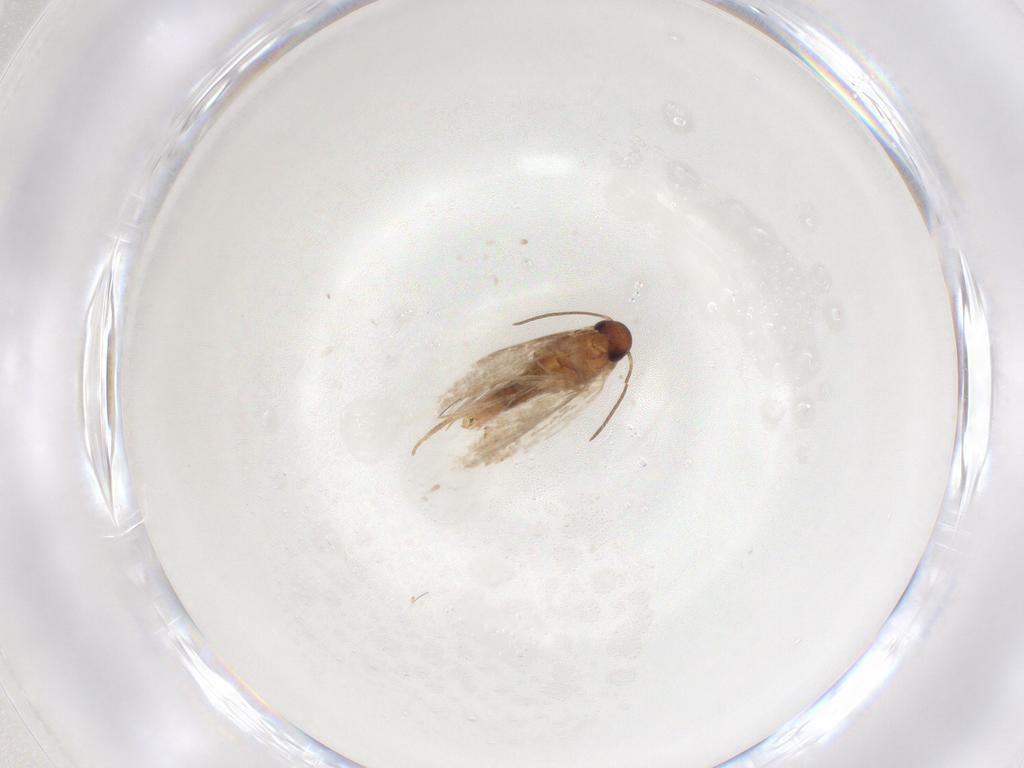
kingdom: Animalia
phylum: Arthropoda
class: Insecta
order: Lepidoptera
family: Heliozelidae
